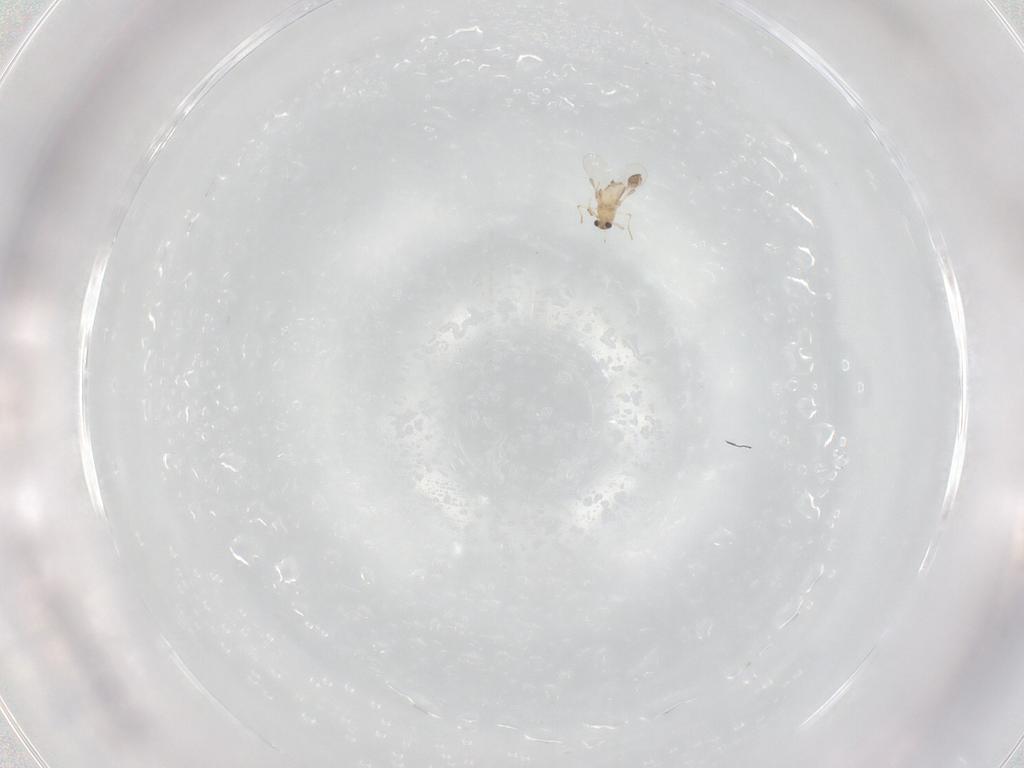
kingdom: Animalia
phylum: Arthropoda
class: Insecta
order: Diptera
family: Chironomidae
